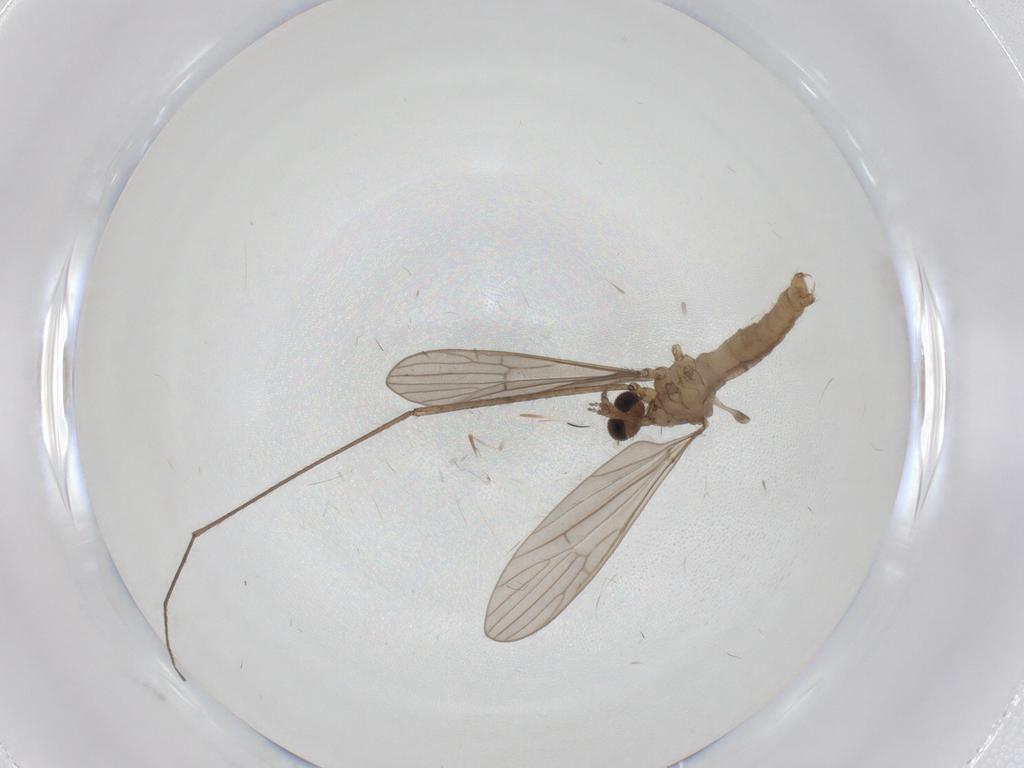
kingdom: Animalia
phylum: Arthropoda
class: Insecta
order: Diptera
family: Limoniidae
